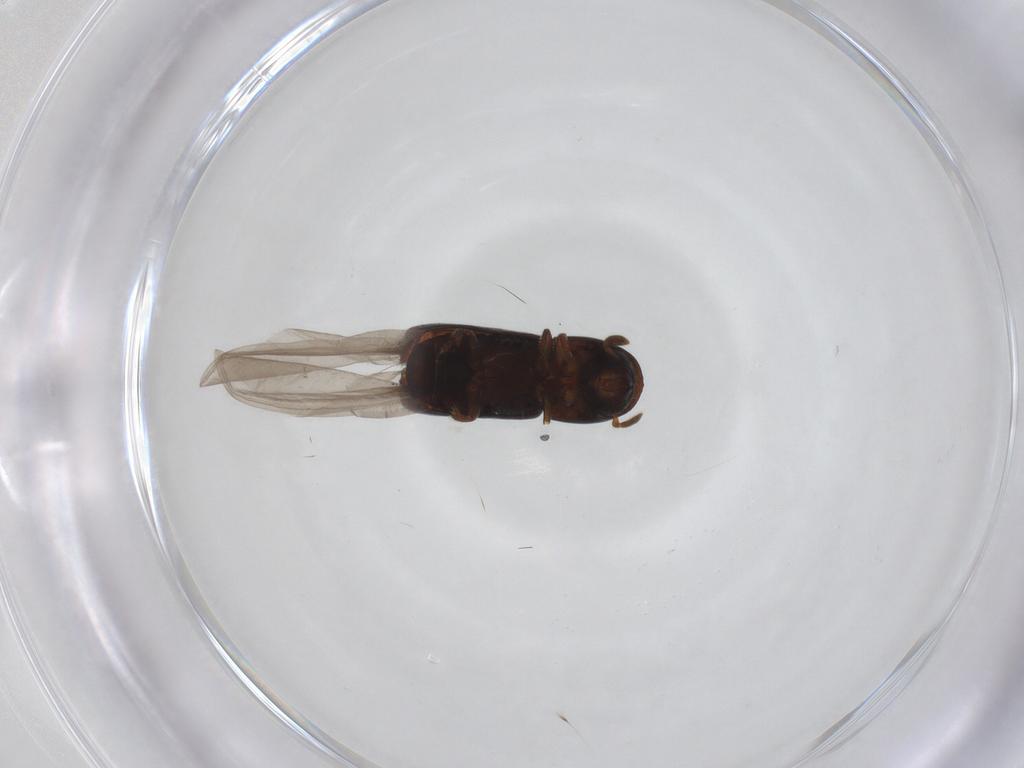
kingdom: Animalia
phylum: Arthropoda
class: Insecta
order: Coleoptera
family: Curculionidae
